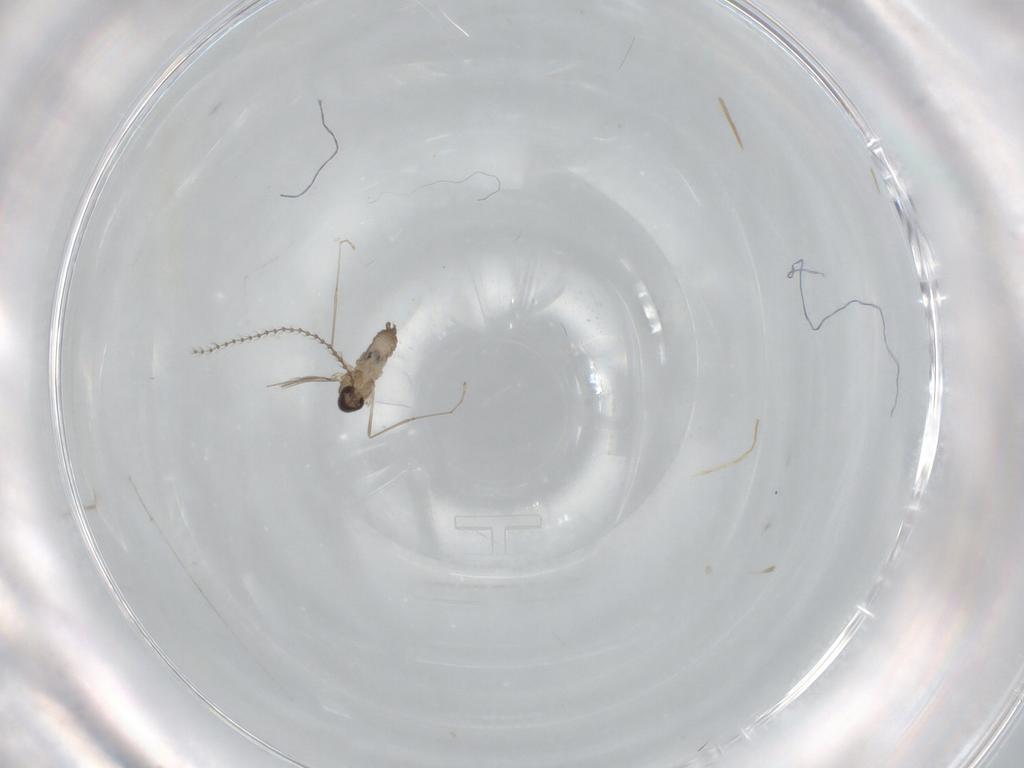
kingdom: Animalia
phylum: Arthropoda
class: Insecta
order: Diptera
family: Cecidomyiidae
